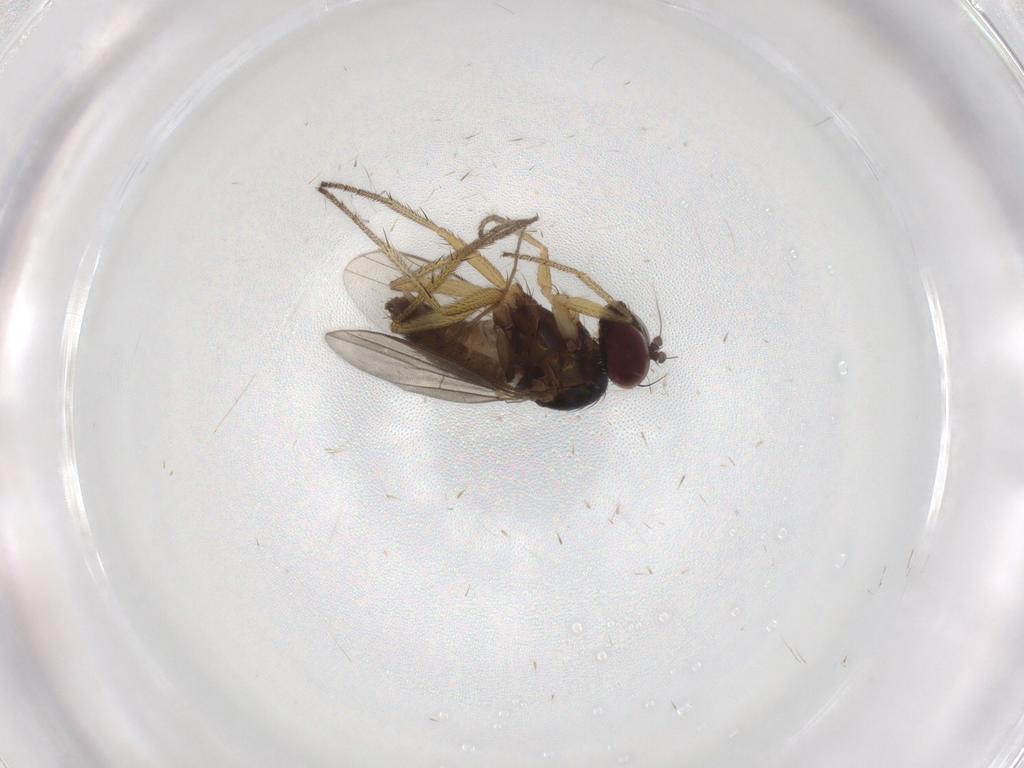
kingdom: Animalia
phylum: Arthropoda
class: Insecta
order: Diptera
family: Dolichopodidae
